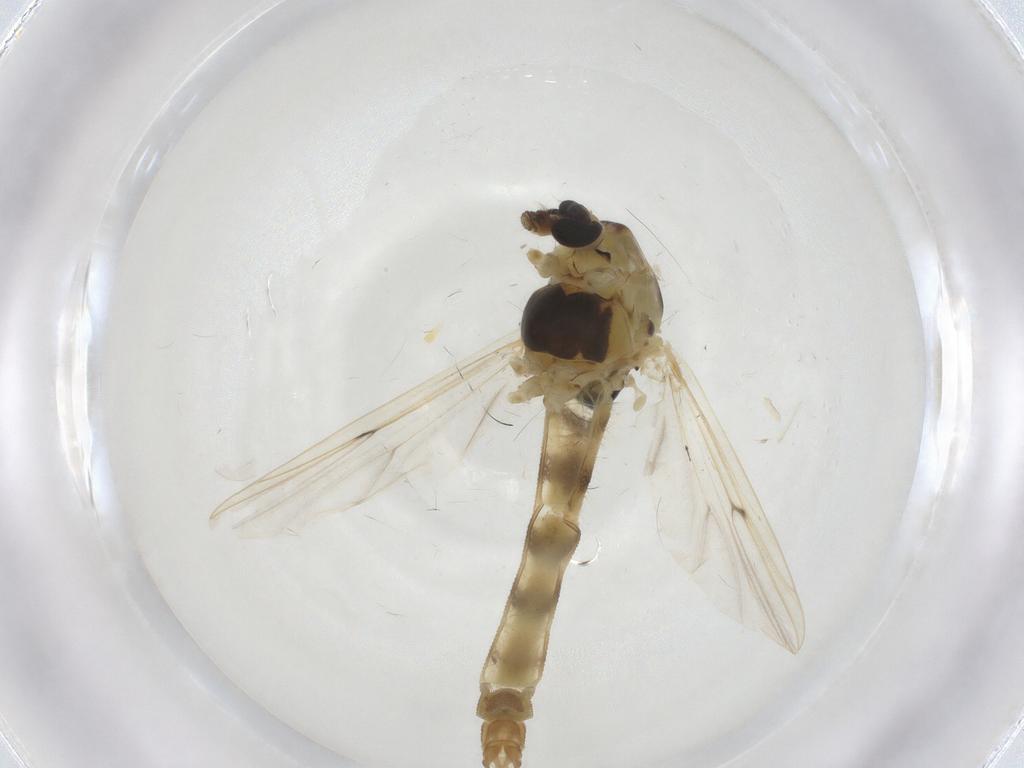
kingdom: Animalia
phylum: Arthropoda
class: Insecta
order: Diptera
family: Chironomidae
